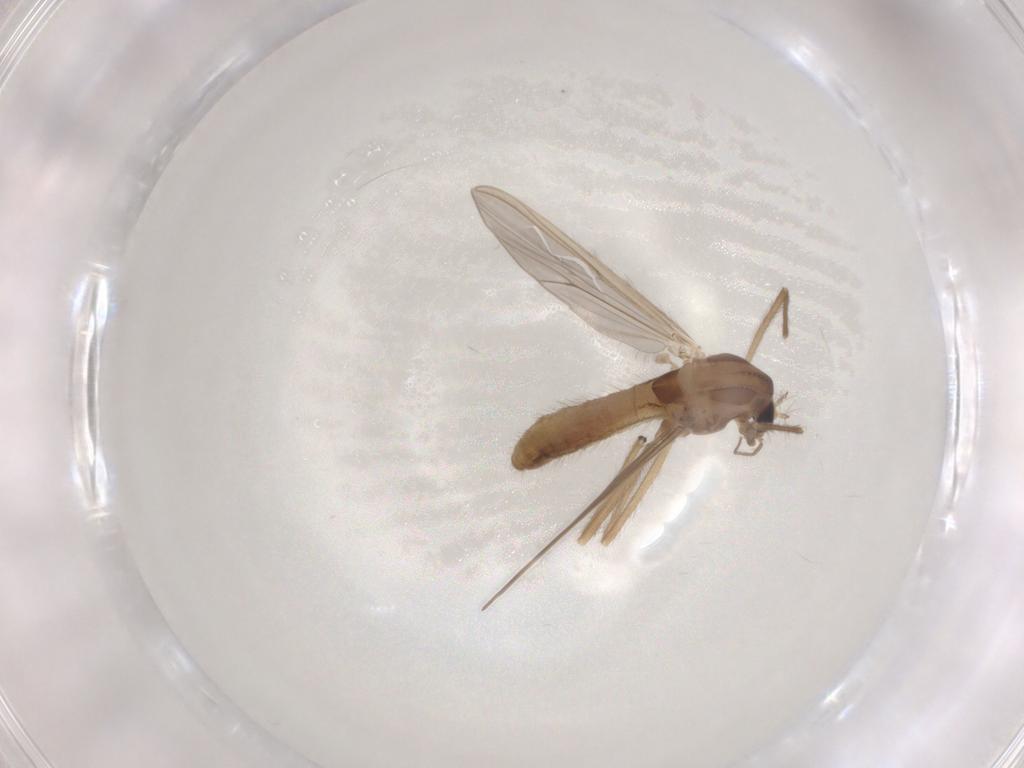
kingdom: Animalia
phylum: Arthropoda
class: Insecta
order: Diptera
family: Chironomidae
